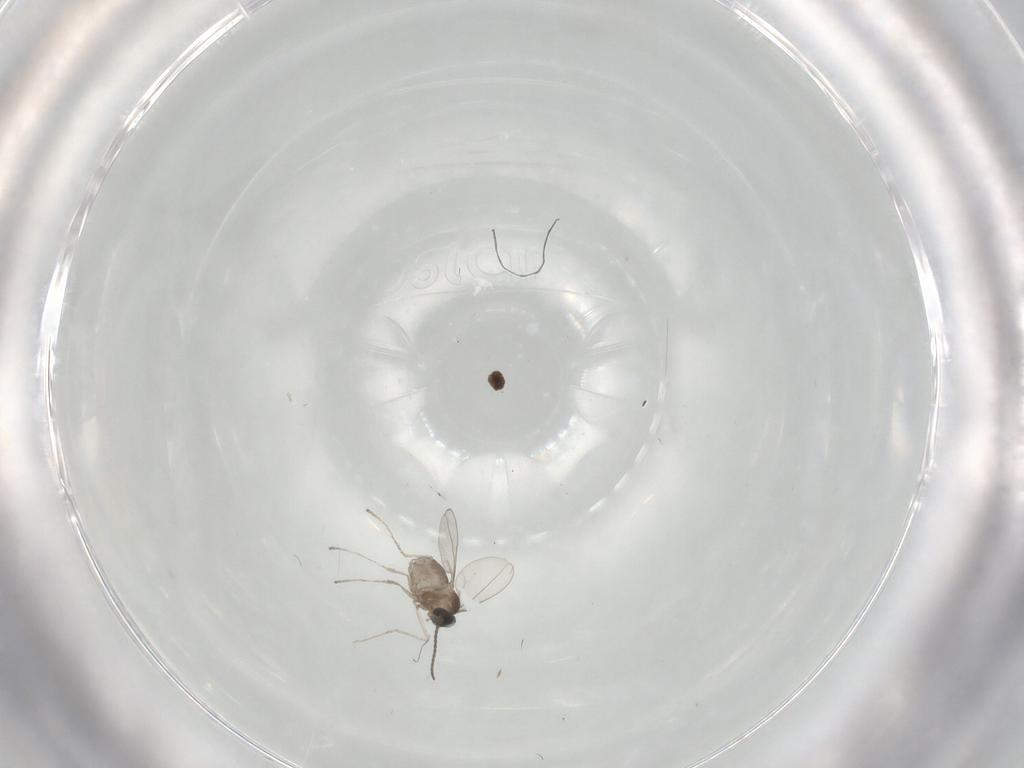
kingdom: Animalia
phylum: Arthropoda
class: Insecta
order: Diptera
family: Cecidomyiidae
